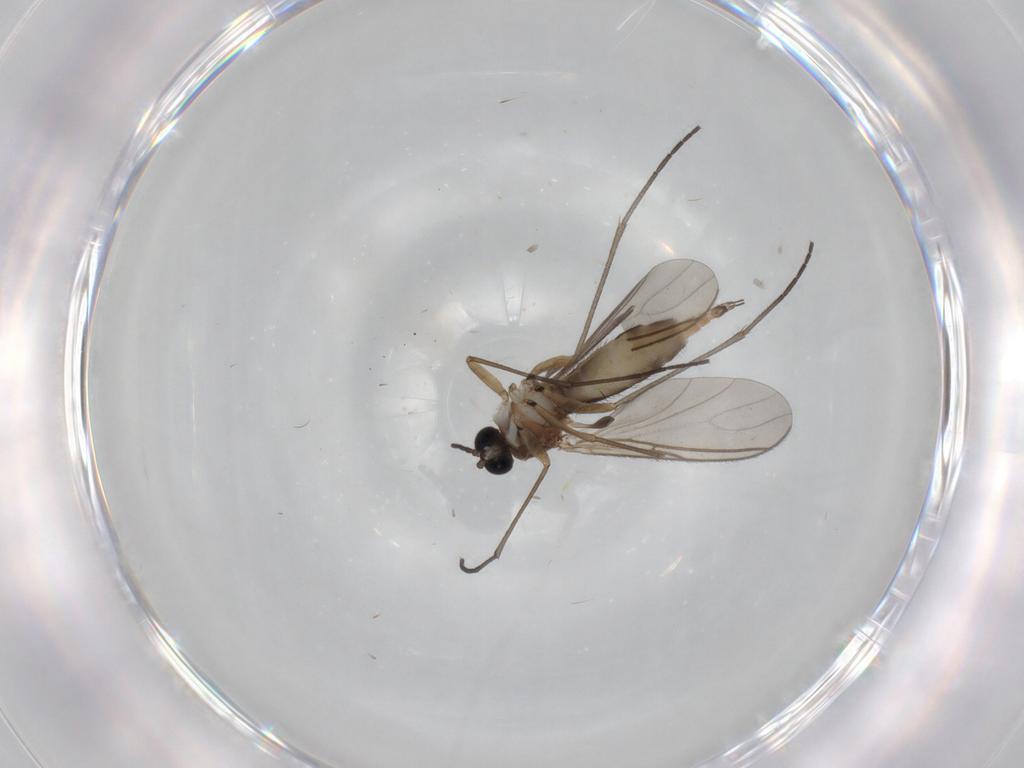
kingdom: Animalia
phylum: Arthropoda
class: Insecta
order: Diptera
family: Sciaridae
